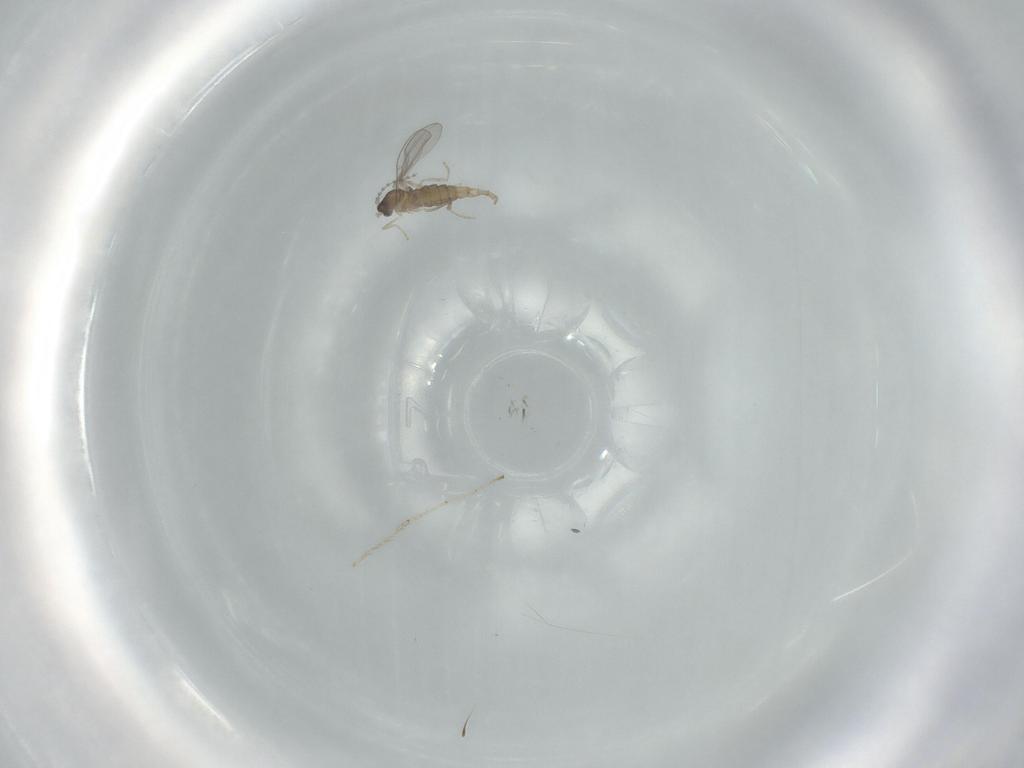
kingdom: Animalia
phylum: Arthropoda
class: Insecta
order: Diptera
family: Cecidomyiidae
